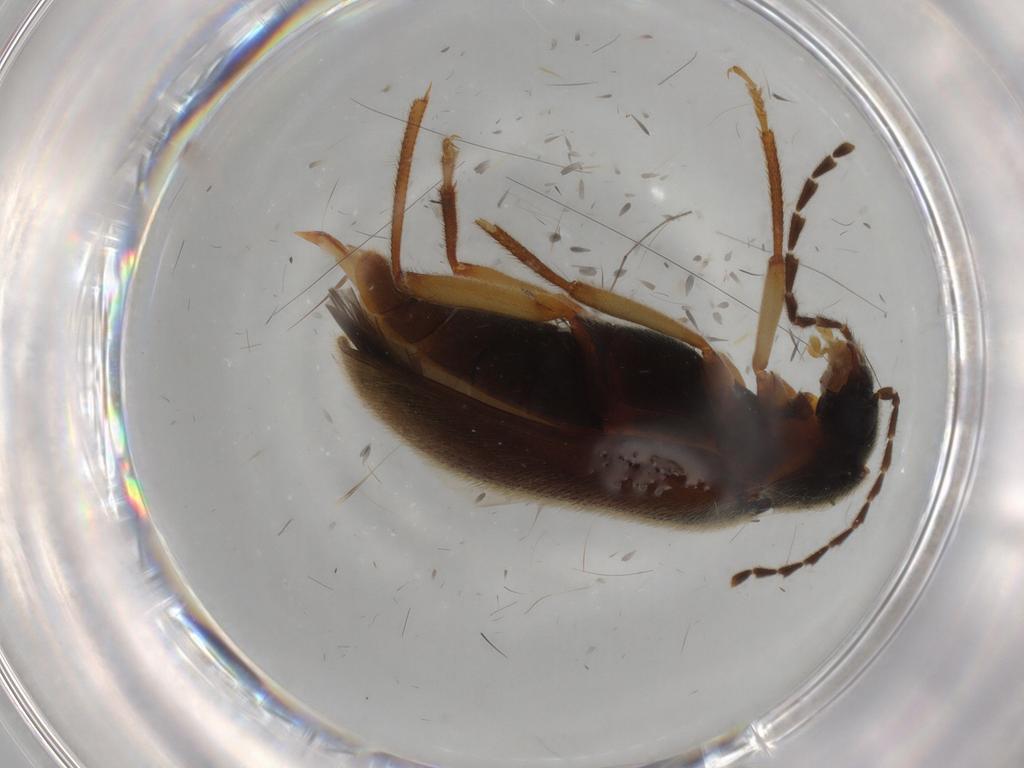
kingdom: Animalia
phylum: Arthropoda
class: Insecta
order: Coleoptera
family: Ptilodactylidae
